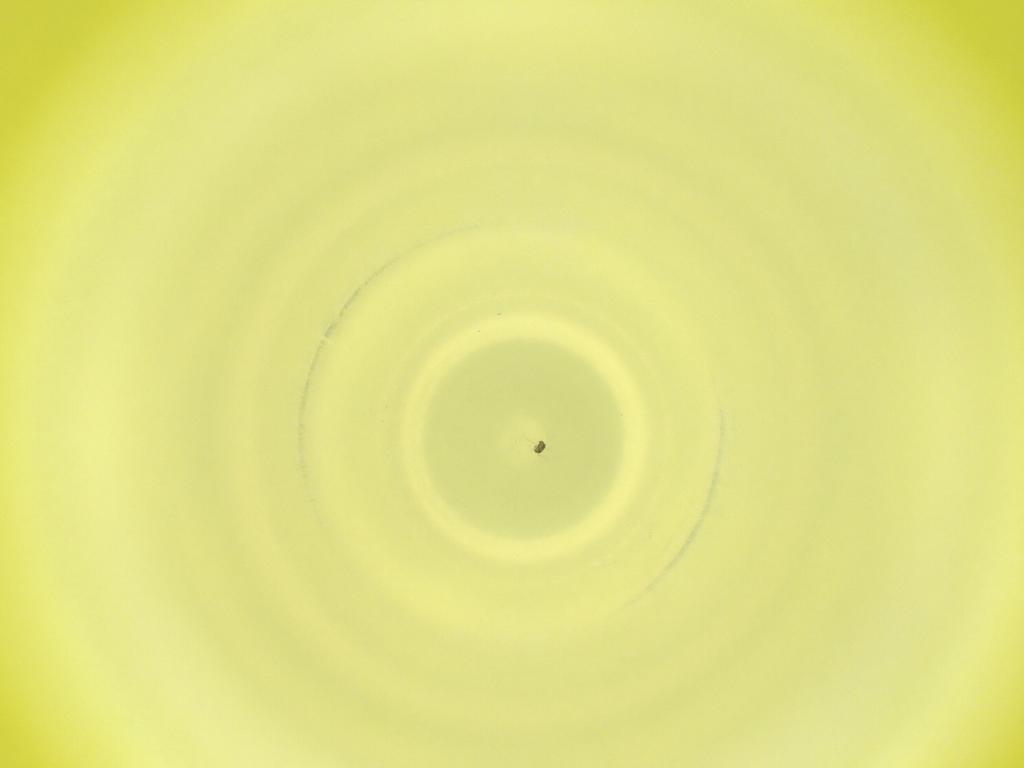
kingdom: Animalia
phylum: Arthropoda
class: Insecta
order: Diptera
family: Cecidomyiidae
